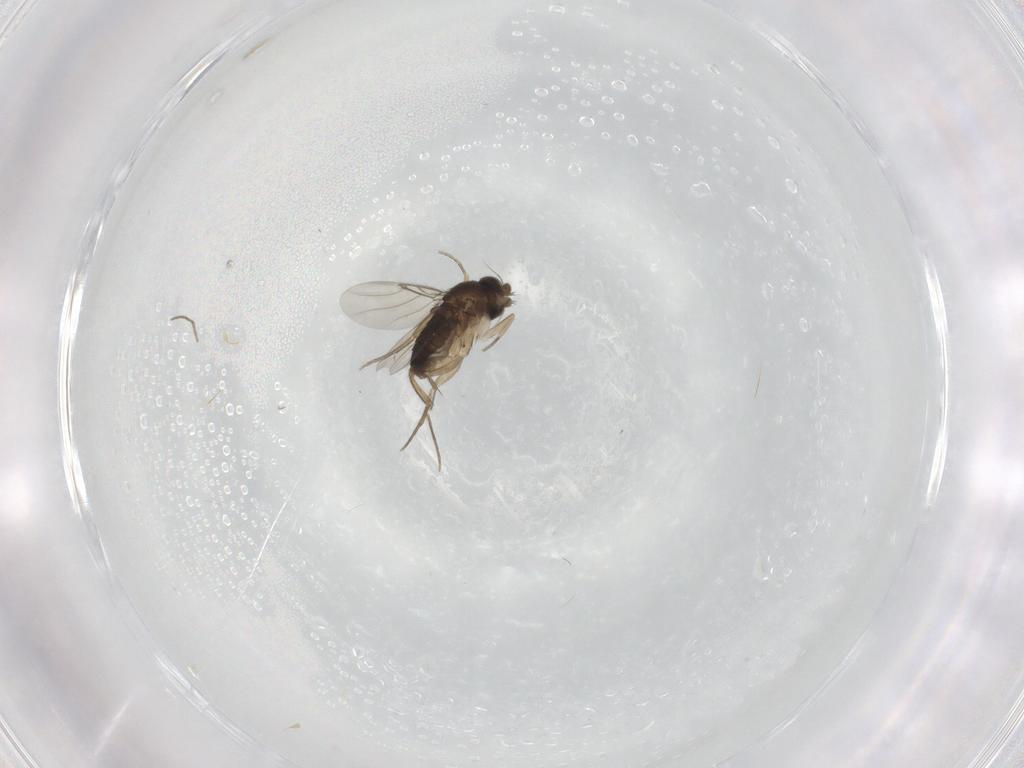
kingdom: Animalia
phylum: Arthropoda
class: Insecta
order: Diptera
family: Phoridae
